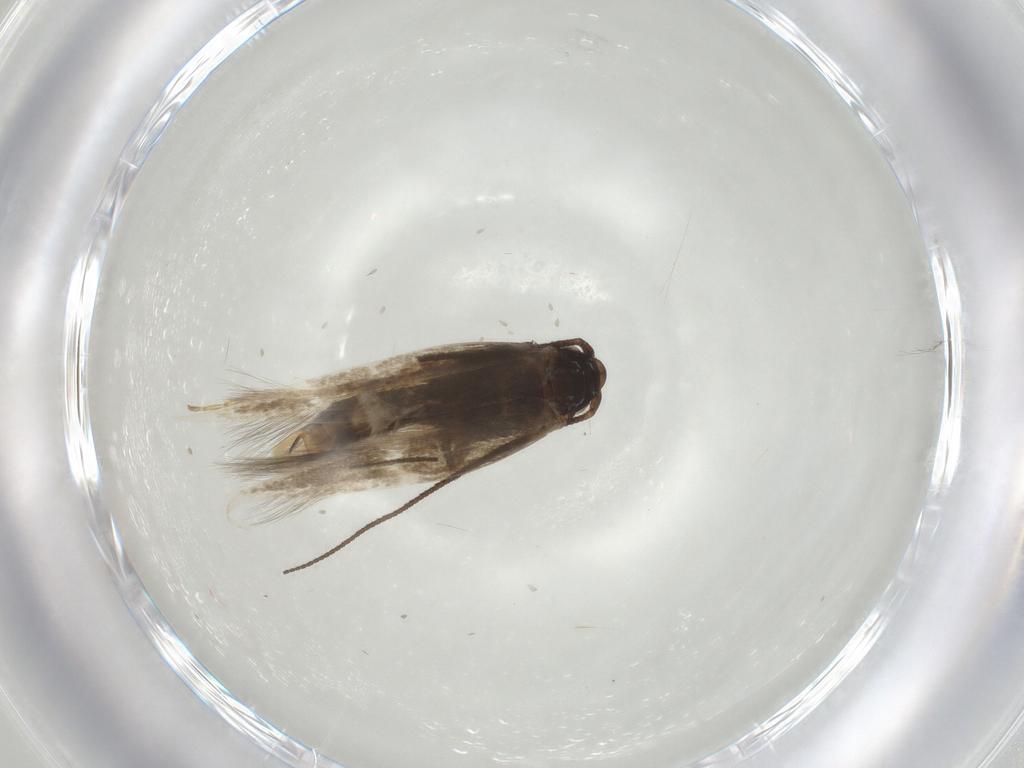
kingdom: Animalia
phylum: Arthropoda
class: Insecta
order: Lepidoptera
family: Tineidae
